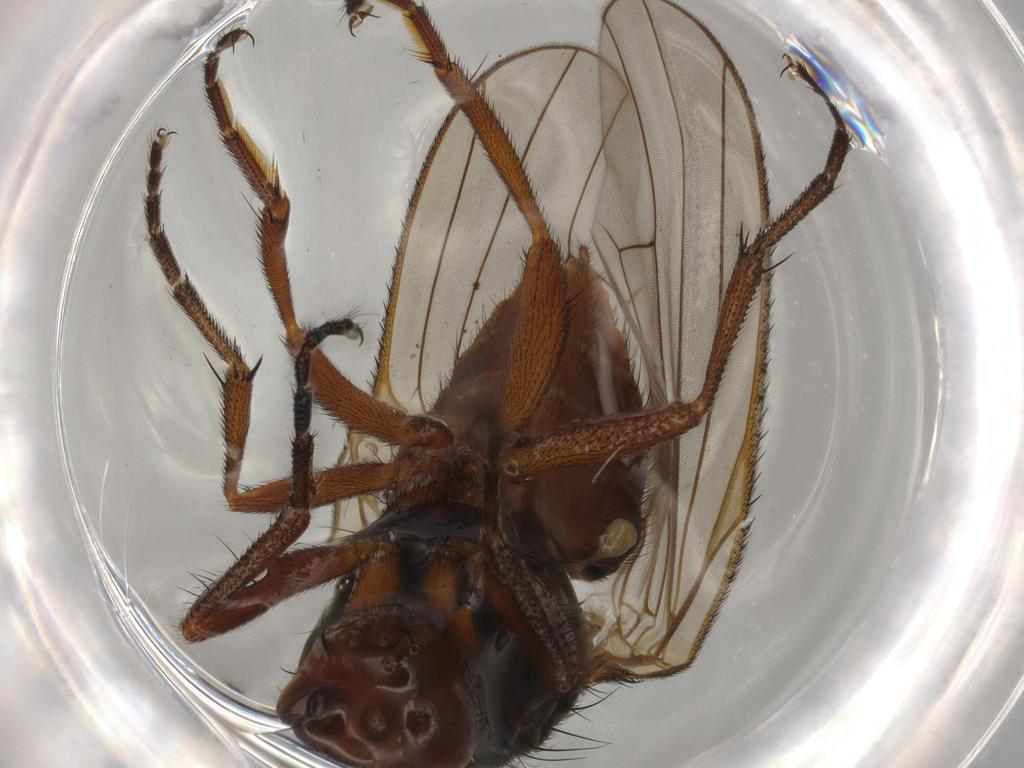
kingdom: Animalia
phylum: Arthropoda
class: Insecta
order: Diptera
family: Heleomyzidae
